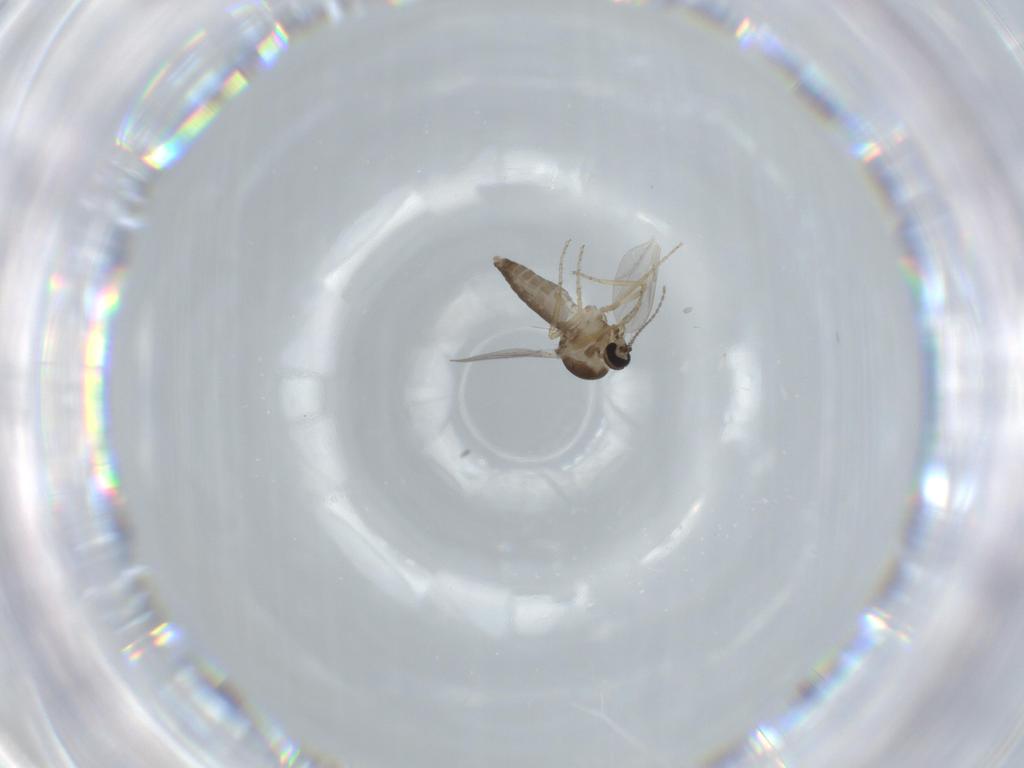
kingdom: Animalia
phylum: Arthropoda
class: Insecta
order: Diptera
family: Ceratopogonidae
